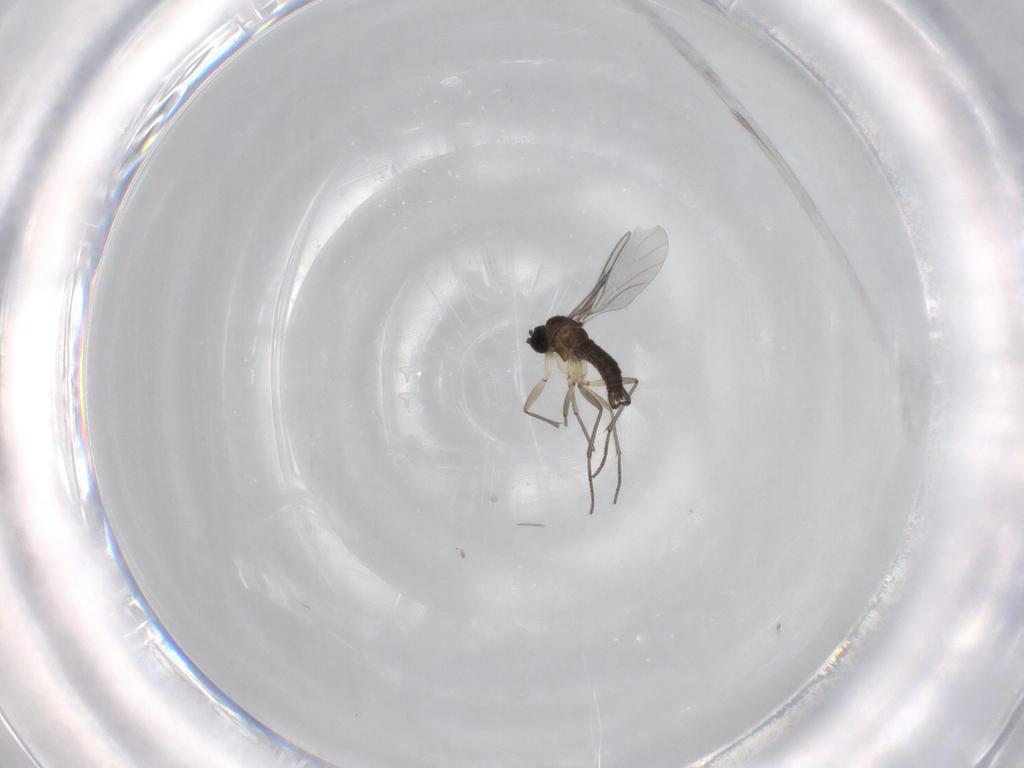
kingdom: Animalia
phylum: Arthropoda
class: Insecta
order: Diptera
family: Sciaridae
